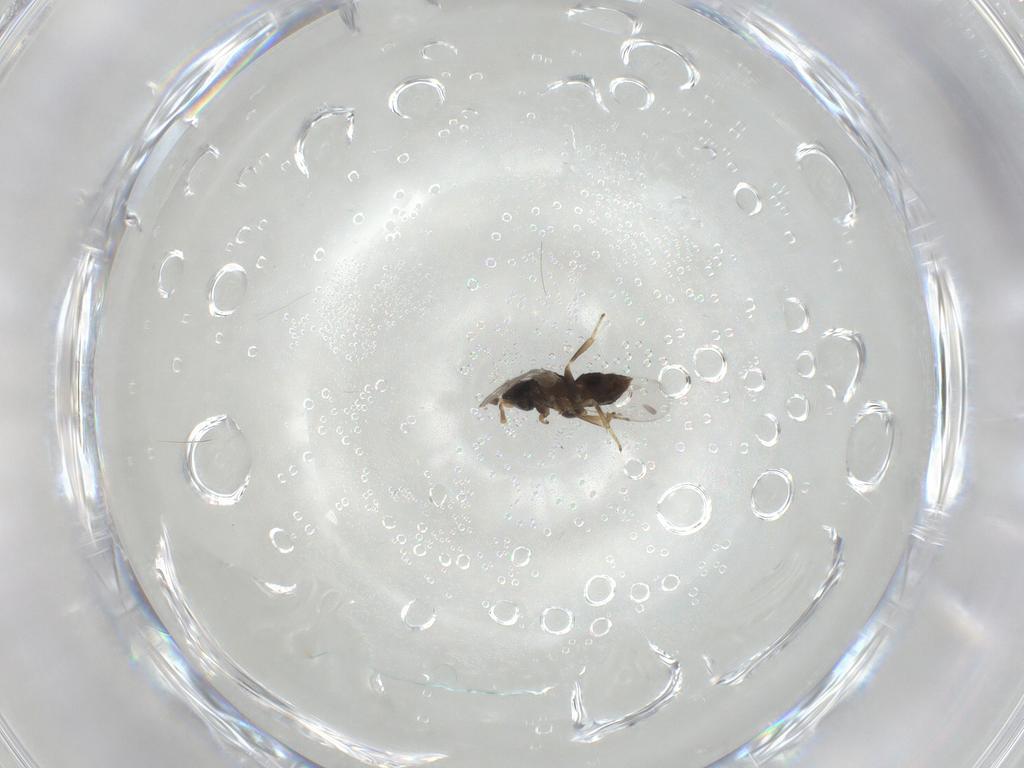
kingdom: Animalia
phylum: Arthropoda
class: Insecta
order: Hymenoptera
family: Encyrtidae
